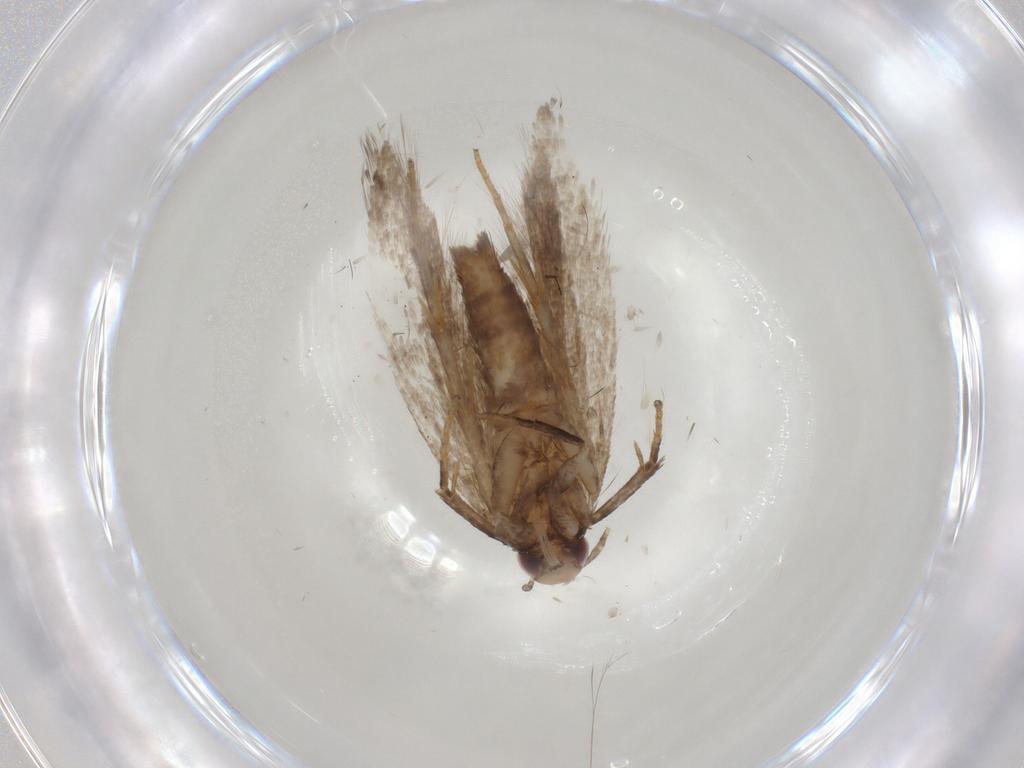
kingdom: Animalia
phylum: Arthropoda
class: Insecta
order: Lepidoptera
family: Gelechiidae
